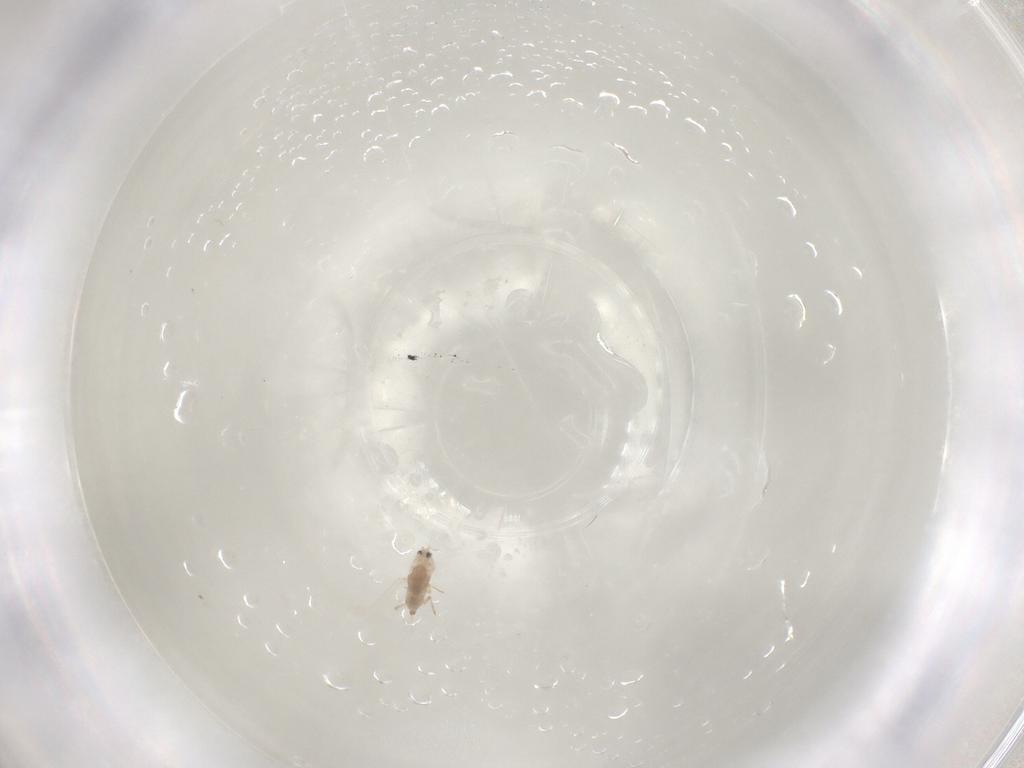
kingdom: Animalia
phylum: Arthropoda
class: Insecta
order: Hemiptera
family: Coccoidea_incertae_sedis
